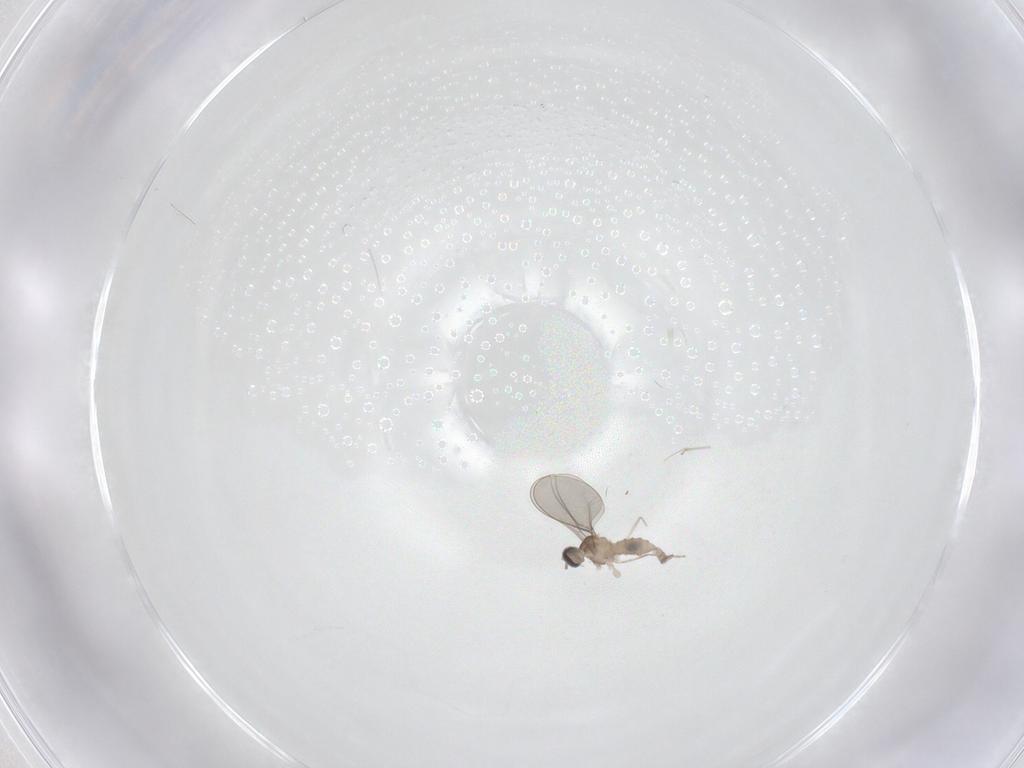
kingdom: Animalia
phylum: Arthropoda
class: Insecta
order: Diptera
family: Cecidomyiidae
